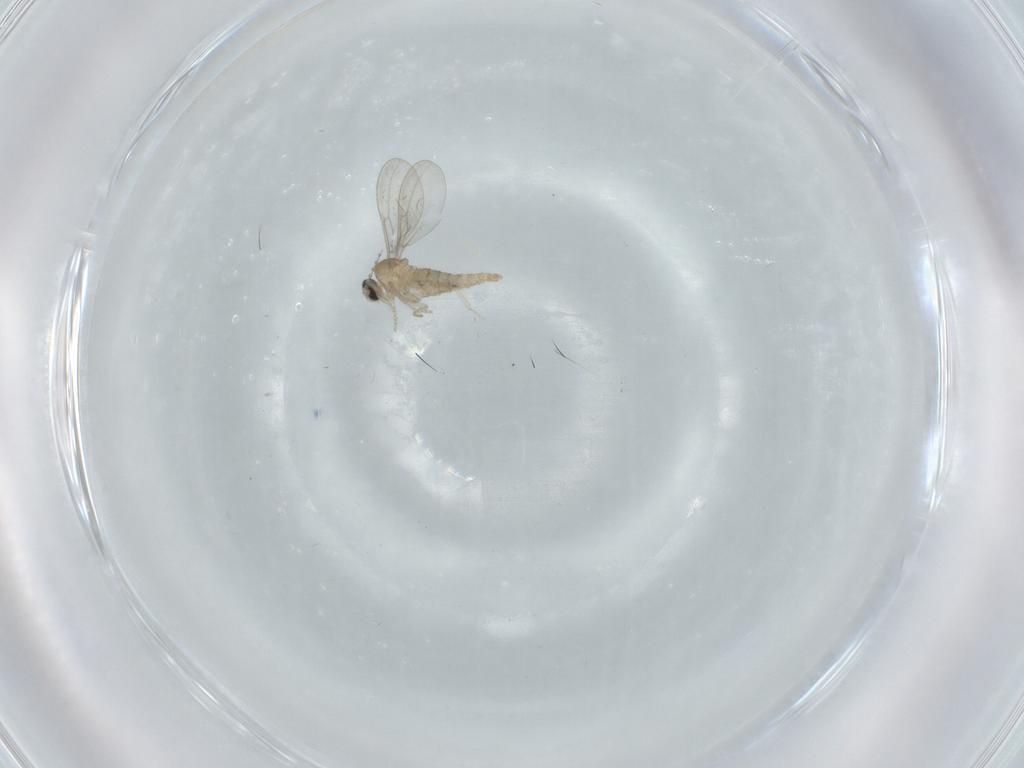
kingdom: Animalia
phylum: Arthropoda
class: Insecta
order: Diptera
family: Cecidomyiidae
